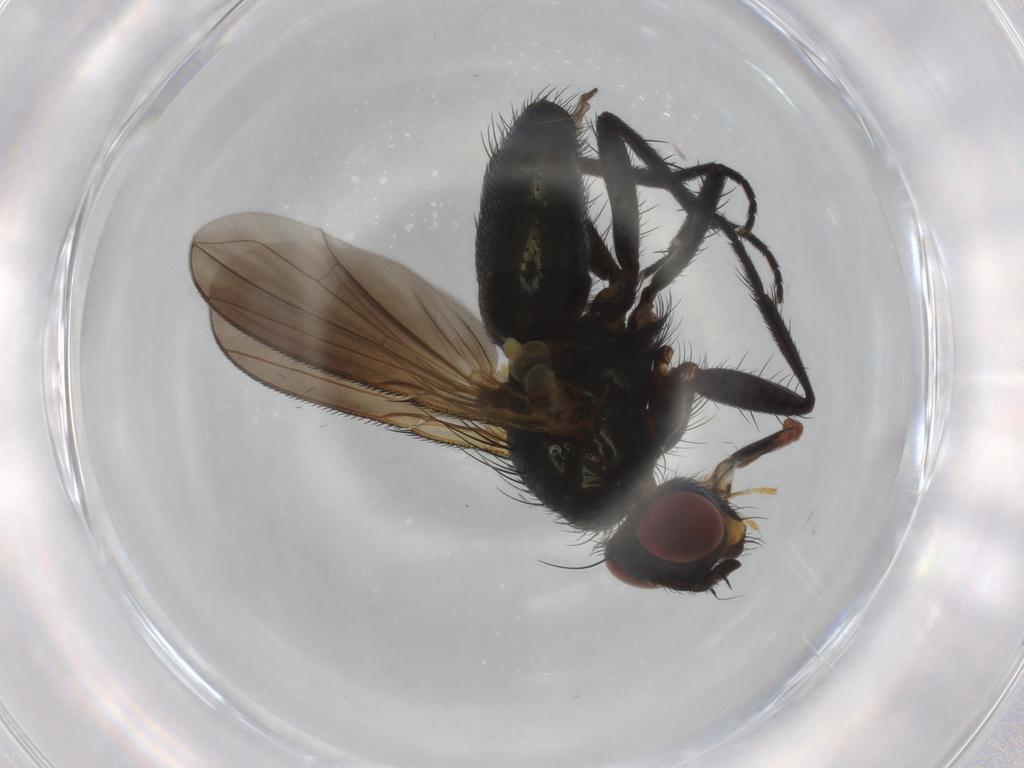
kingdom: Animalia
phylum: Arthropoda
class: Insecta
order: Diptera
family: Calliphoridae
